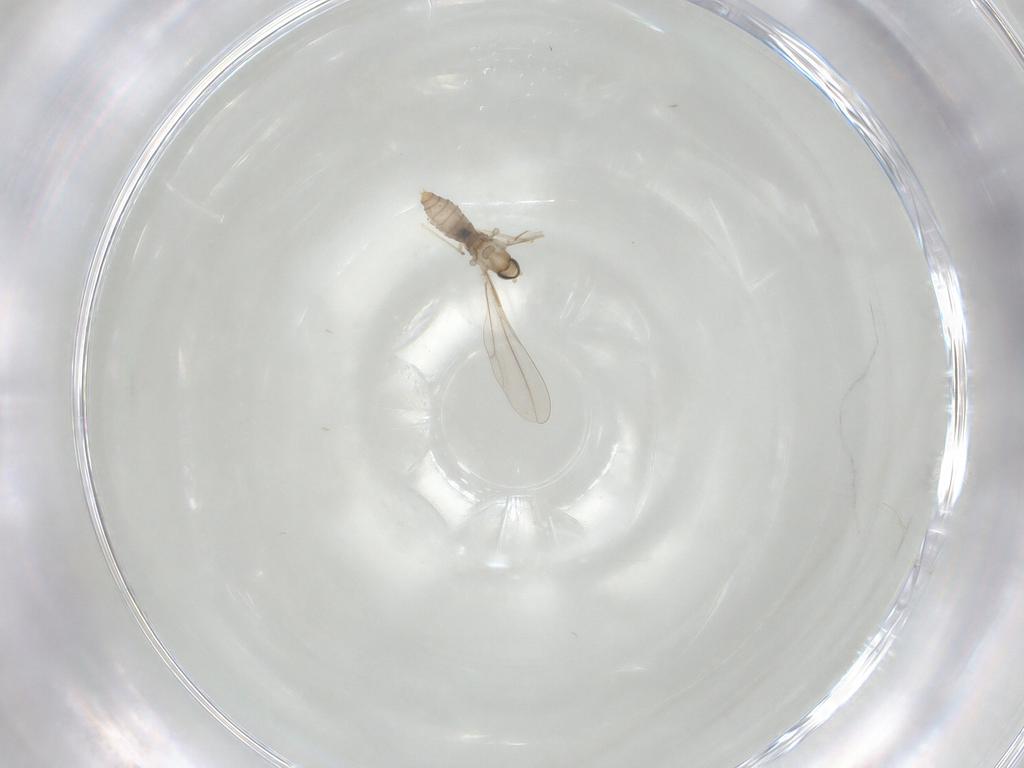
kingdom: Animalia
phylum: Arthropoda
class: Insecta
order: Diptera
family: Cecidomyiidae
